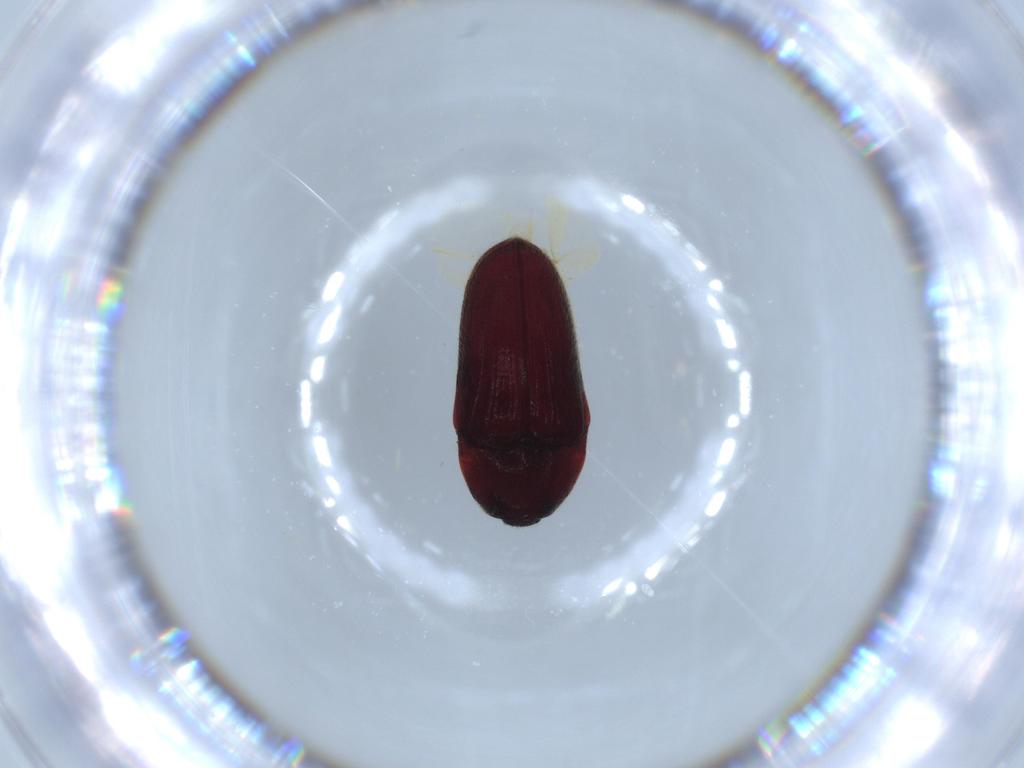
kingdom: Animalia
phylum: Arthropoda
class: Insecta
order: Coleoptera
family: Throscidae
